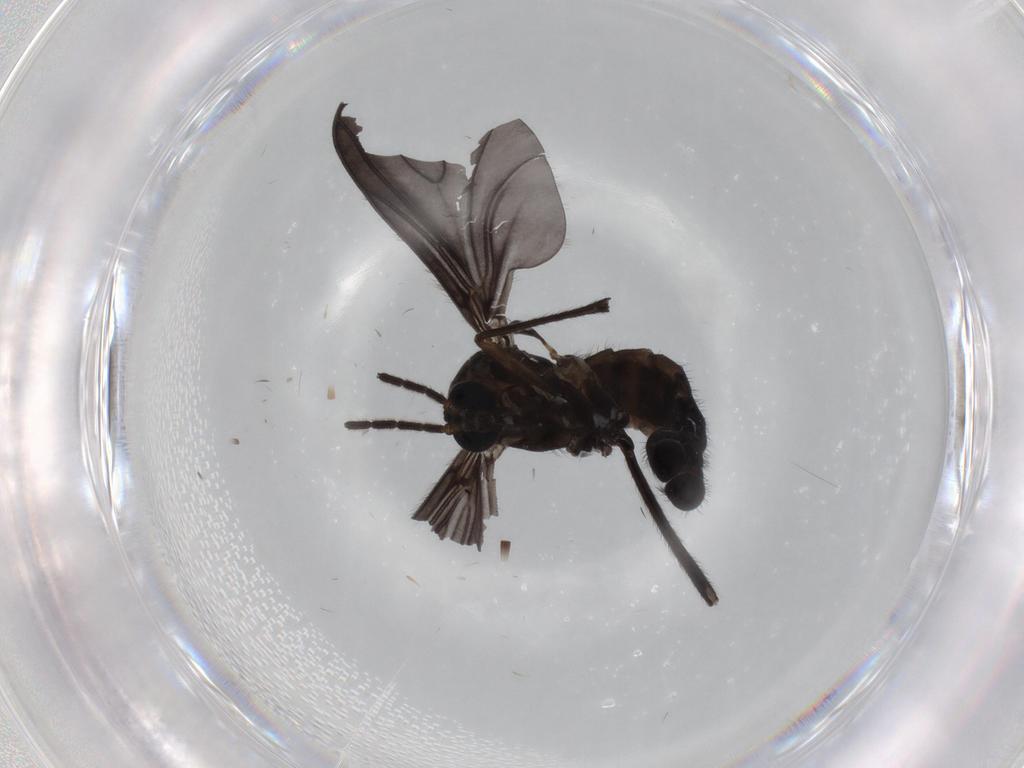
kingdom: Animalia
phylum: Arthropoda
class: Insecta
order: Diptera
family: Sciaridae
